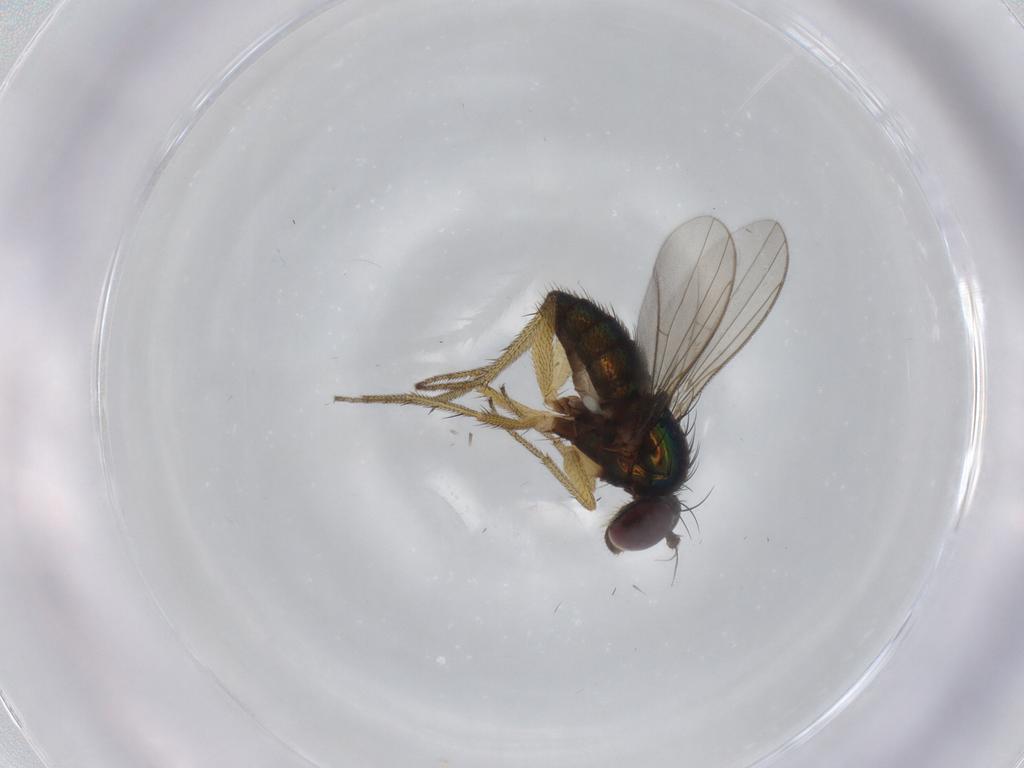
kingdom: Animalia
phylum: Arthropoda
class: Insecta
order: Diptera
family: Dolichopodidae
